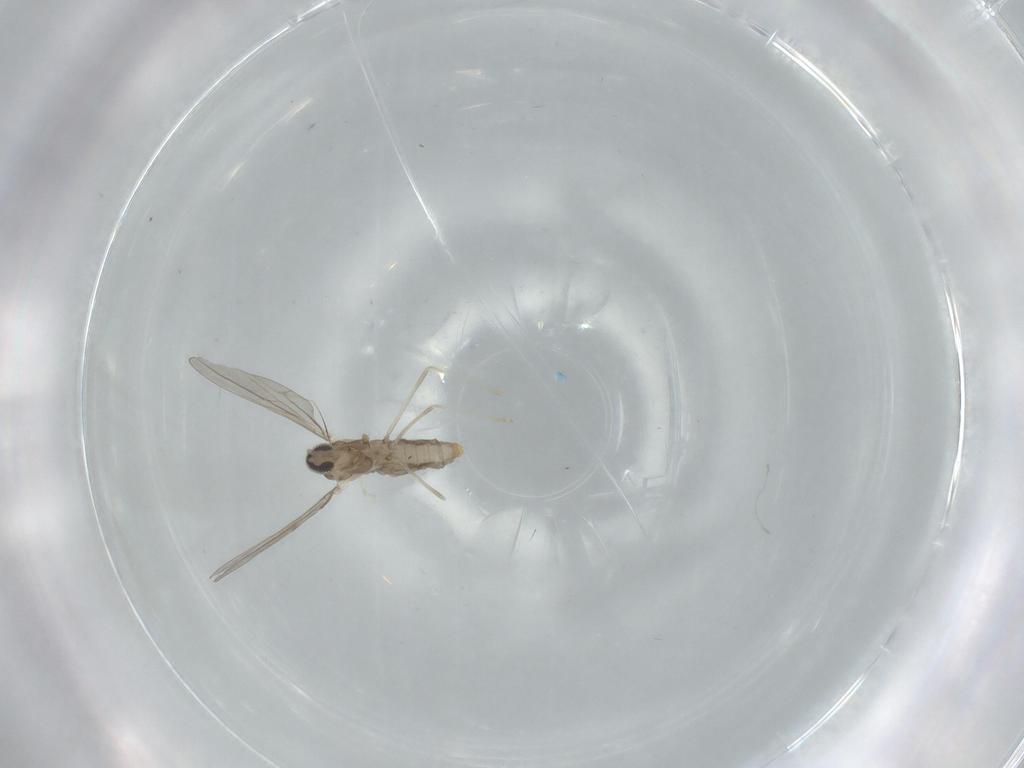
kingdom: Animalia
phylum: Arthropoda
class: Insecta
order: Diptera
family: Cecidomyiidae
